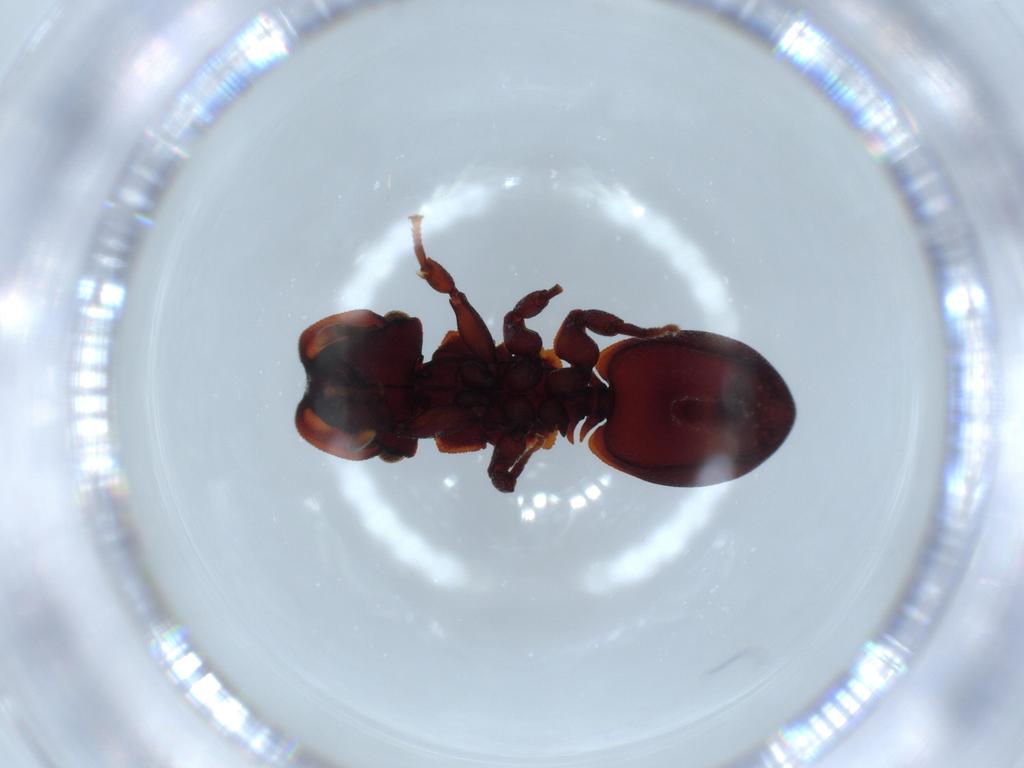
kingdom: Animalia
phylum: Arthropoda
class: Insecta
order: Hymenoptera
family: Formicidae
